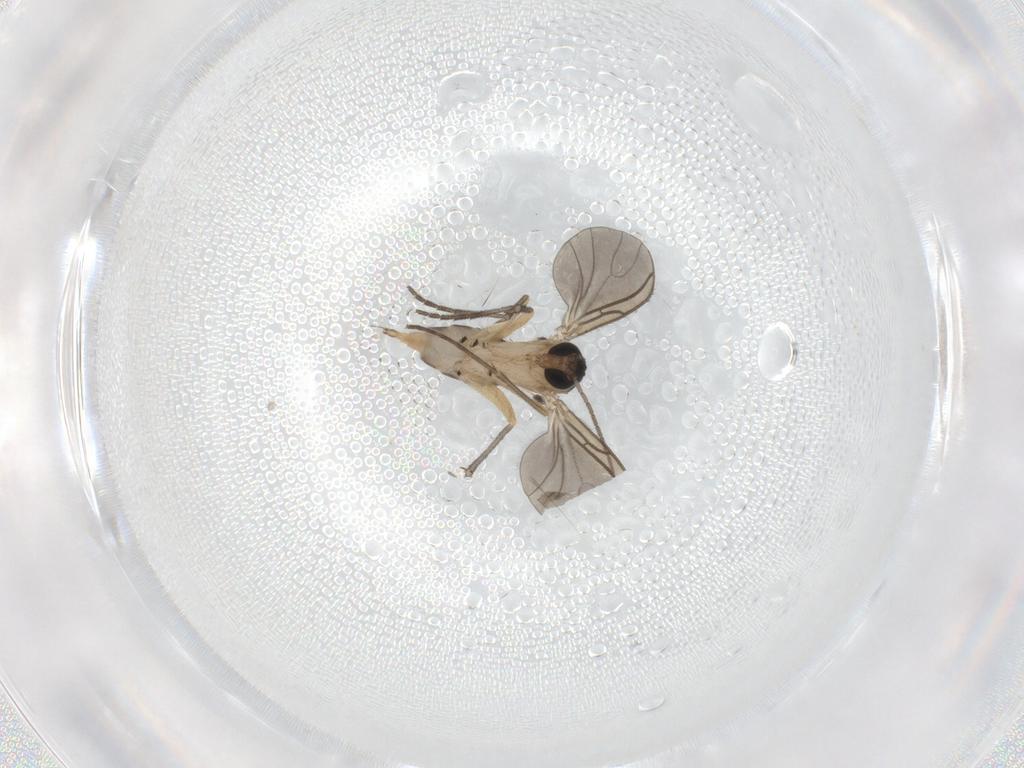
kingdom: Animalia
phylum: Arthropoda
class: Insecta
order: Diptera
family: Sciaridae
